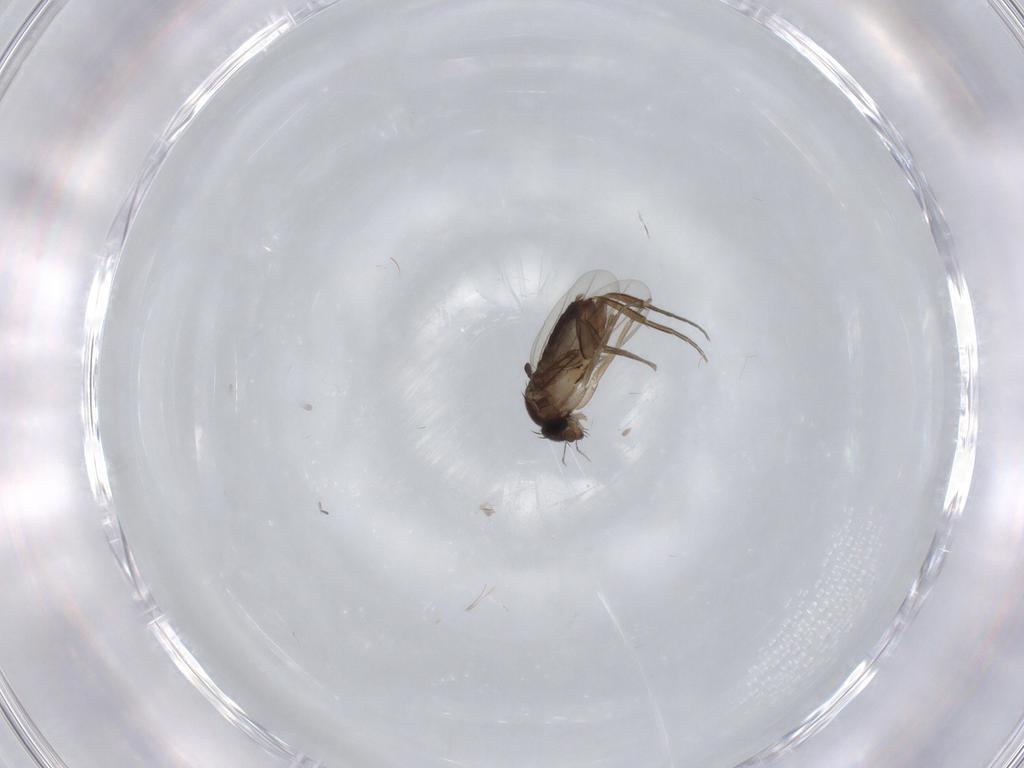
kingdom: Animalia
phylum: Arthropoda
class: Insecta
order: Diptera
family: Phoridae
